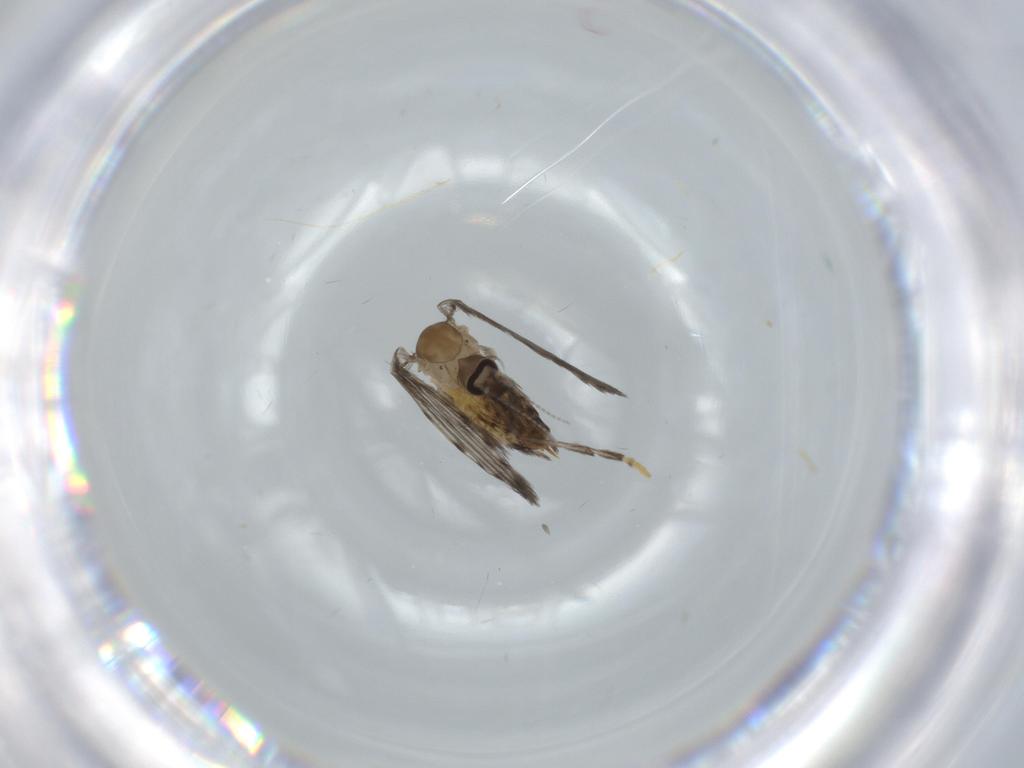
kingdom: Animalia
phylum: Arthropoda
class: Insecta
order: Diptera
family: Psychodidae
